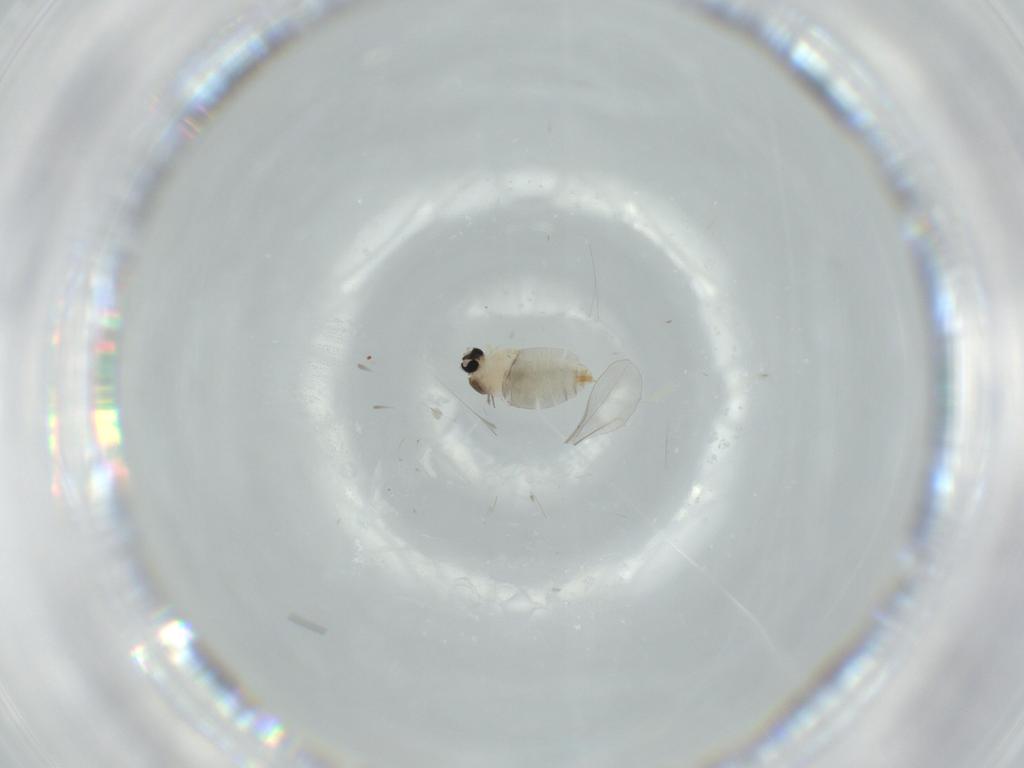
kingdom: Animalia
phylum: Arthropoda
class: Insecta
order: Diptera
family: Tabanidae
